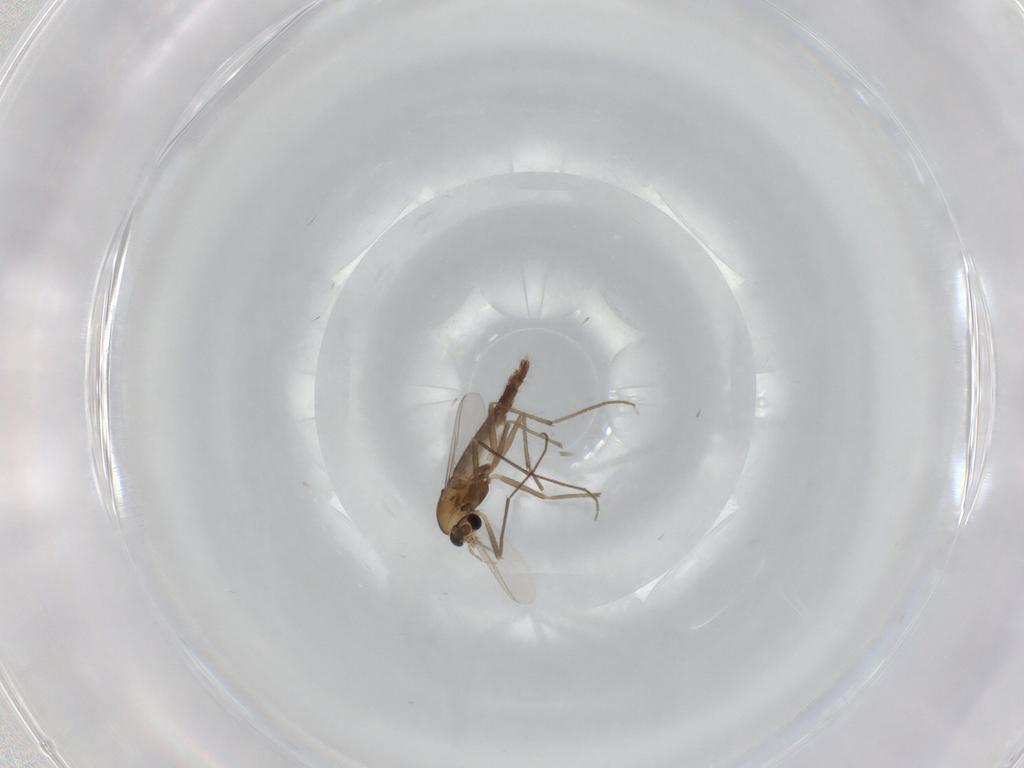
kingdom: Animalia
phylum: Arthropoda
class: Insecta
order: Diptera
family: Chironomidae
